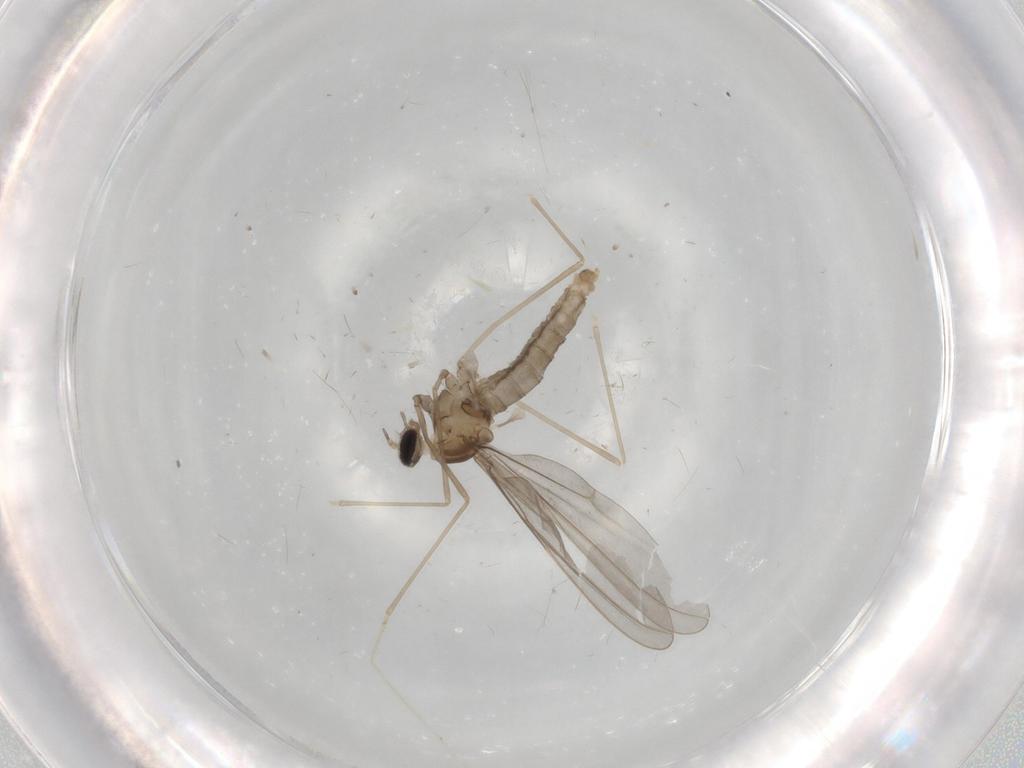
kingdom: Animalia
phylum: Arthropoda
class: Insecta
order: Diptera
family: Cecidomyiidae
